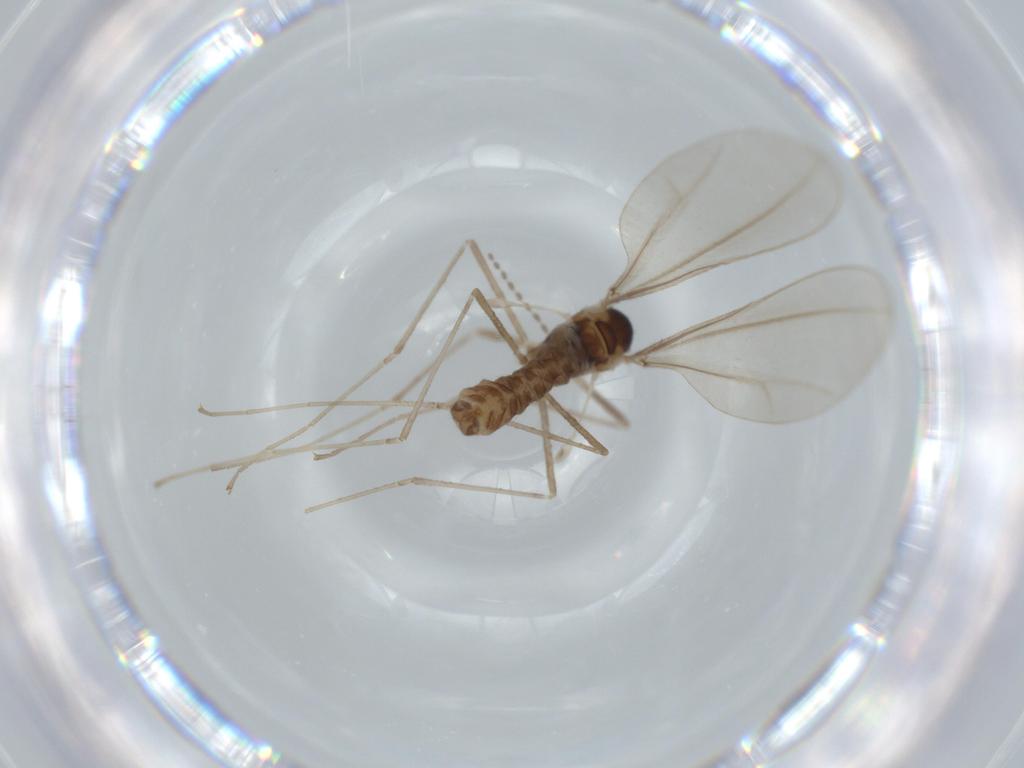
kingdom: Animalia
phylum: Arthropoda
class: Insecta
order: Diptera
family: Cecidomyiidae
